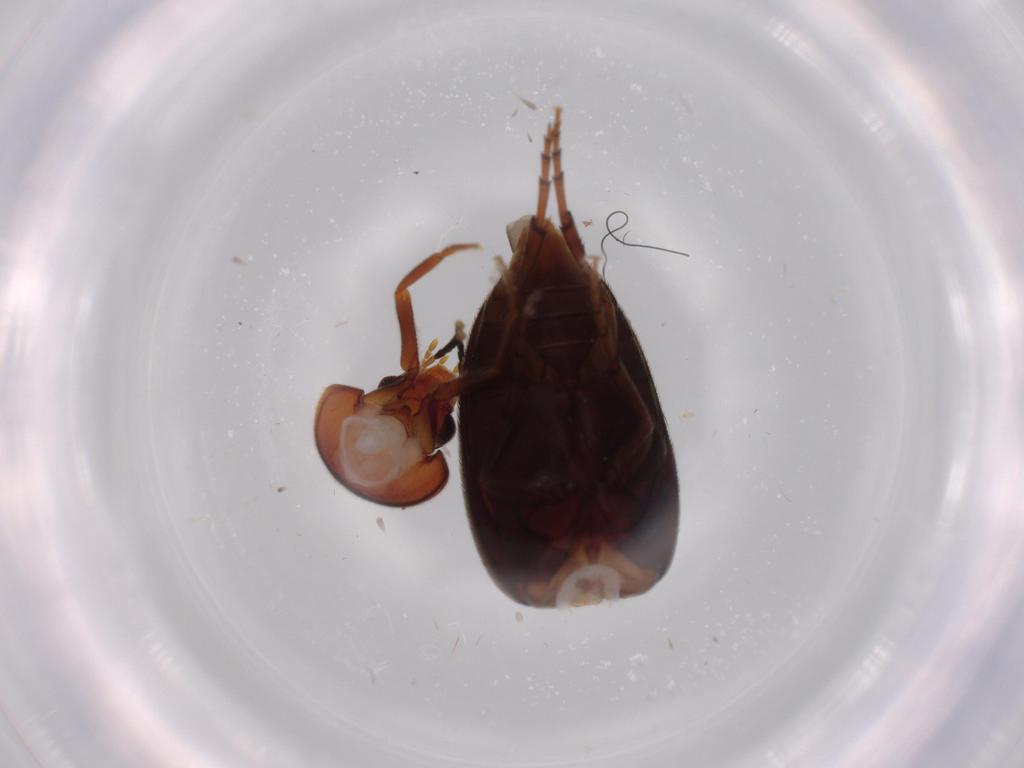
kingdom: Animalia
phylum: Arthropoda
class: Insecta
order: Coleoptera
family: Eucinetidae
